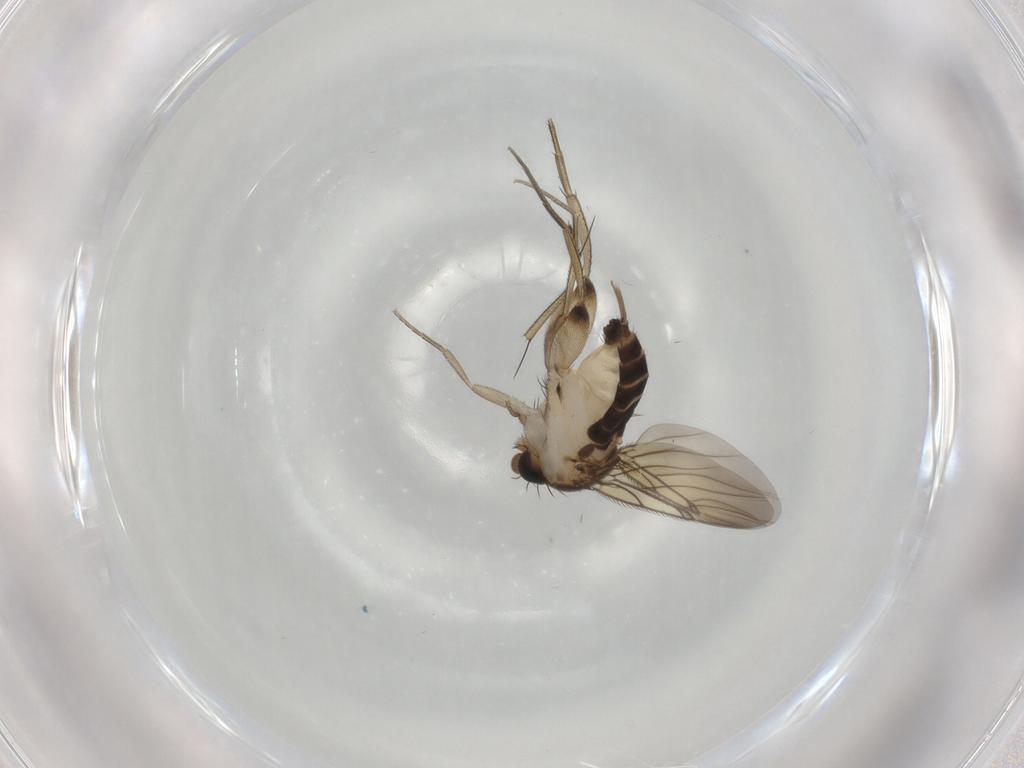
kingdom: Animalia
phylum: Arthropoda
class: Insecta
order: Diptera
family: Phoridae
